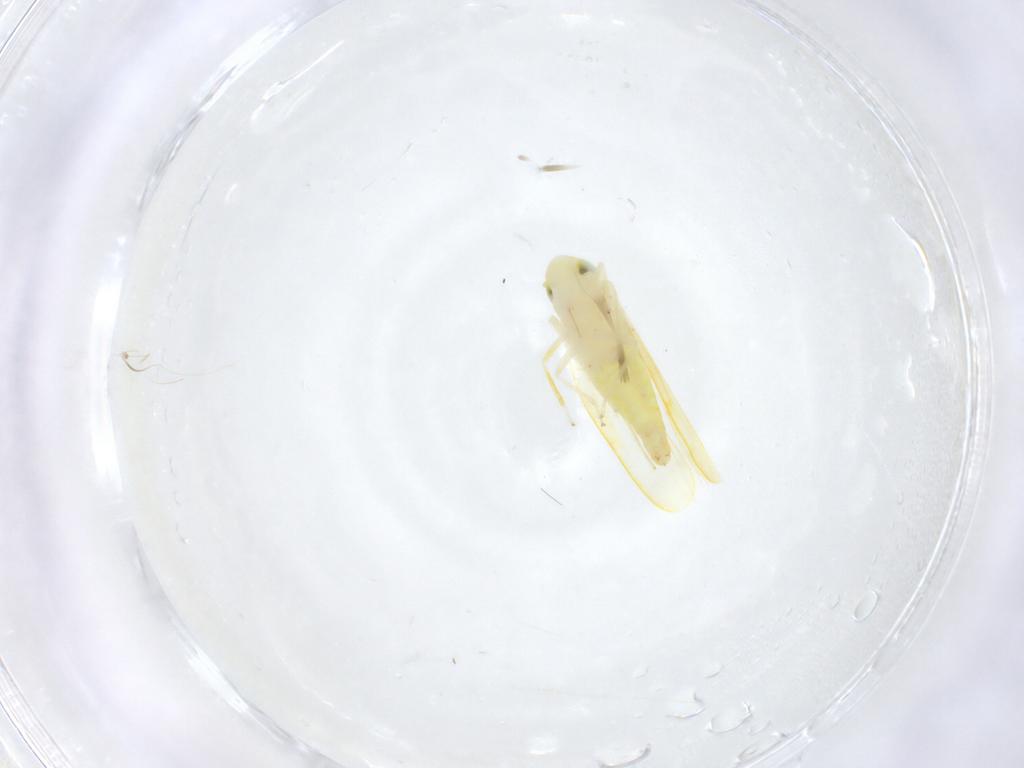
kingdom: Animalia
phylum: Arthropoda
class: Insecta
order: Hemiptera
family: Cicadellidae
